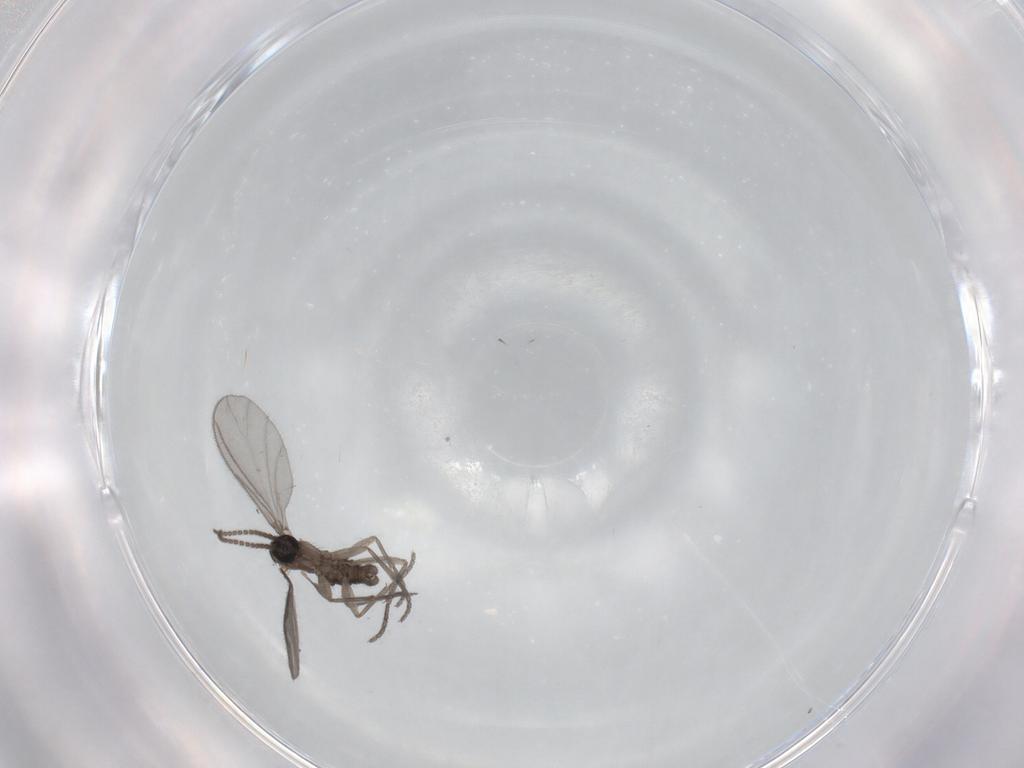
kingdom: Animalia
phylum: Arthropoda
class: Insecta
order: Diptera
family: Sciaridae
